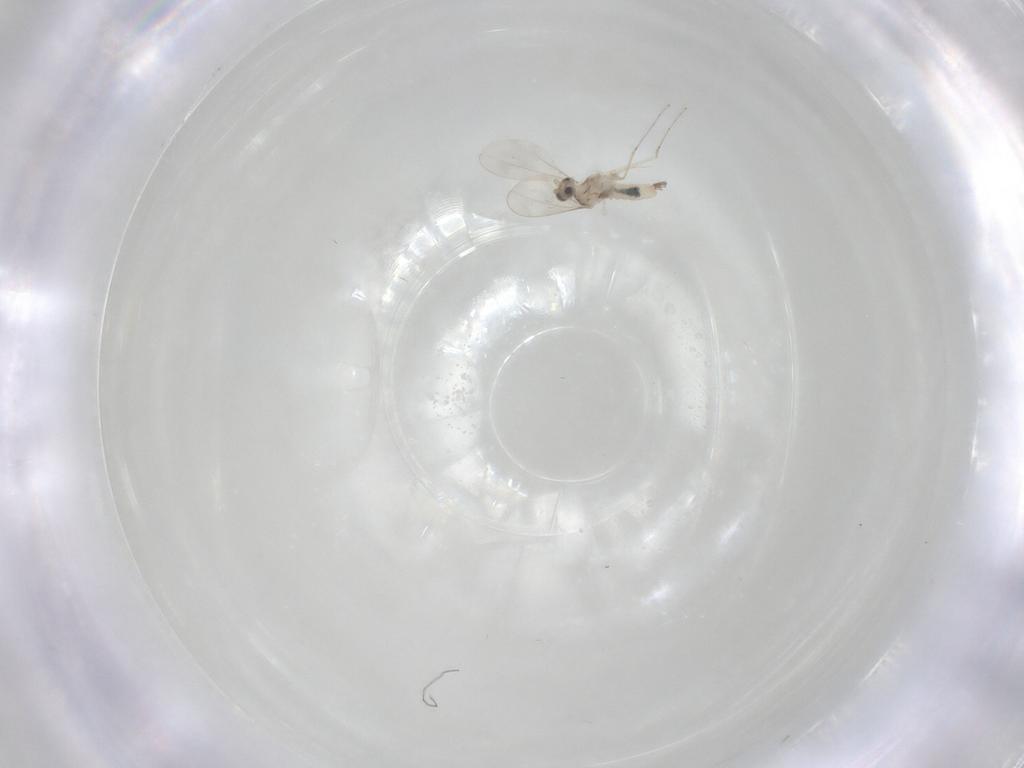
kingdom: Animalia
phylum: Arthropoda
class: Insecta
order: Diptera
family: Cecidomyiidae
